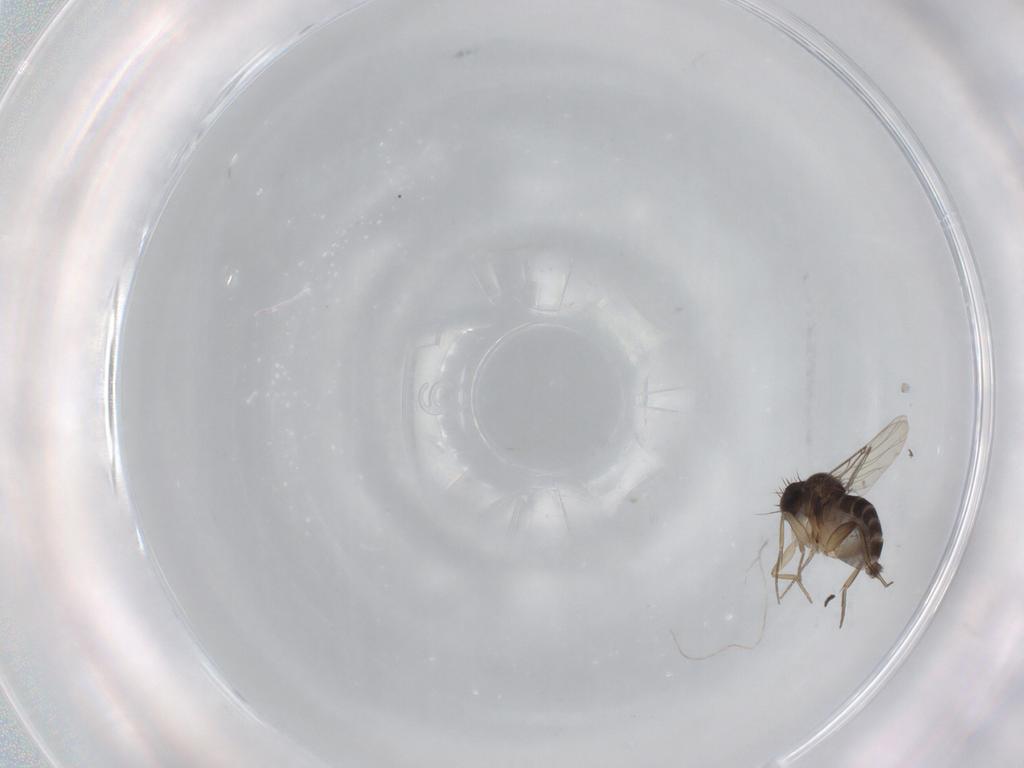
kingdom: Animalia
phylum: Arthropoda
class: Insecta
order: Diptera
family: Phoridae
